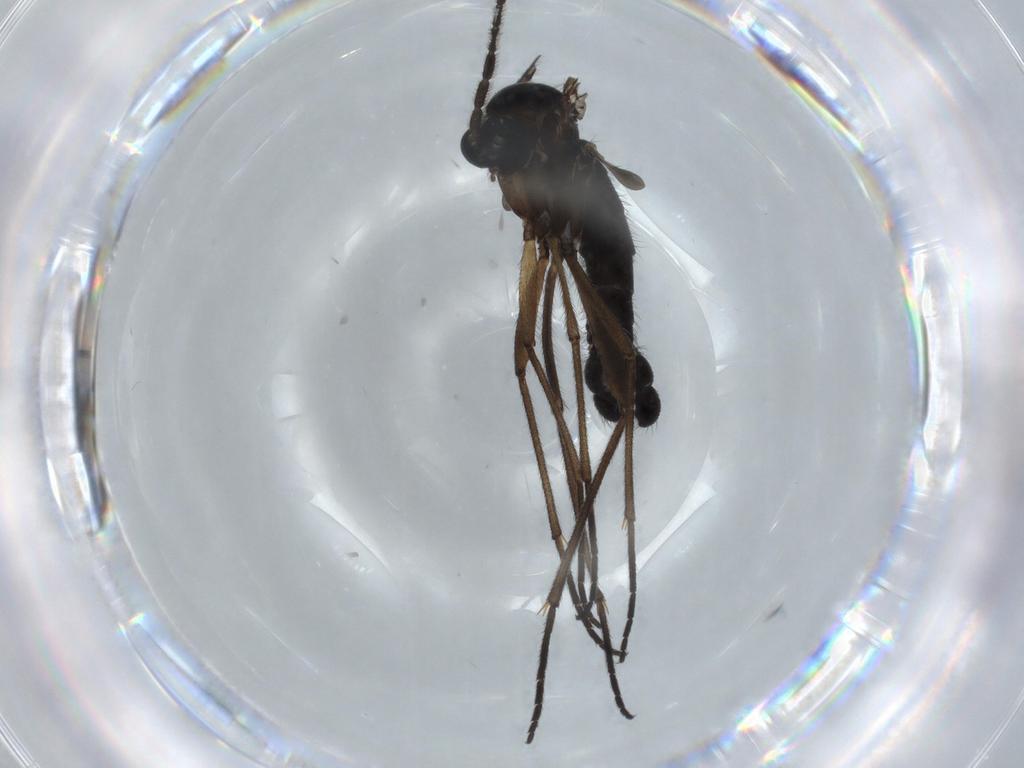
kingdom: Animalia
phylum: Arthropoda
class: Insecta
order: Diptera
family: Sciaridae
